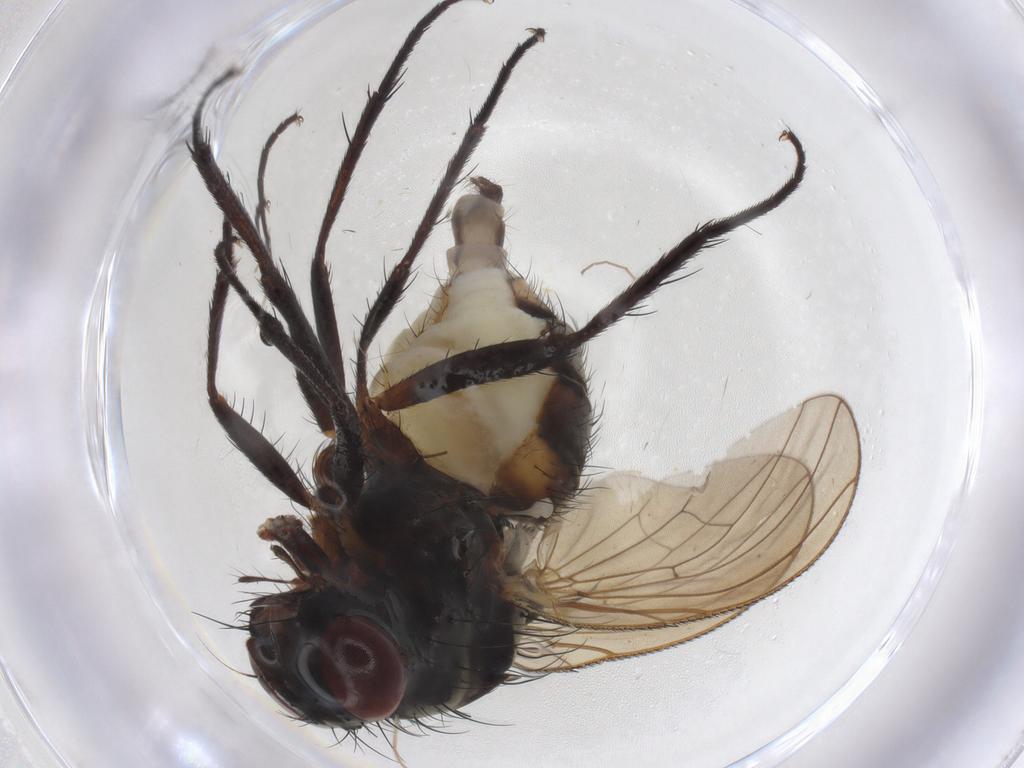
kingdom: Animalia
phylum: Arthropoda
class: Insecta
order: Diptera
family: Anthomyiidae
